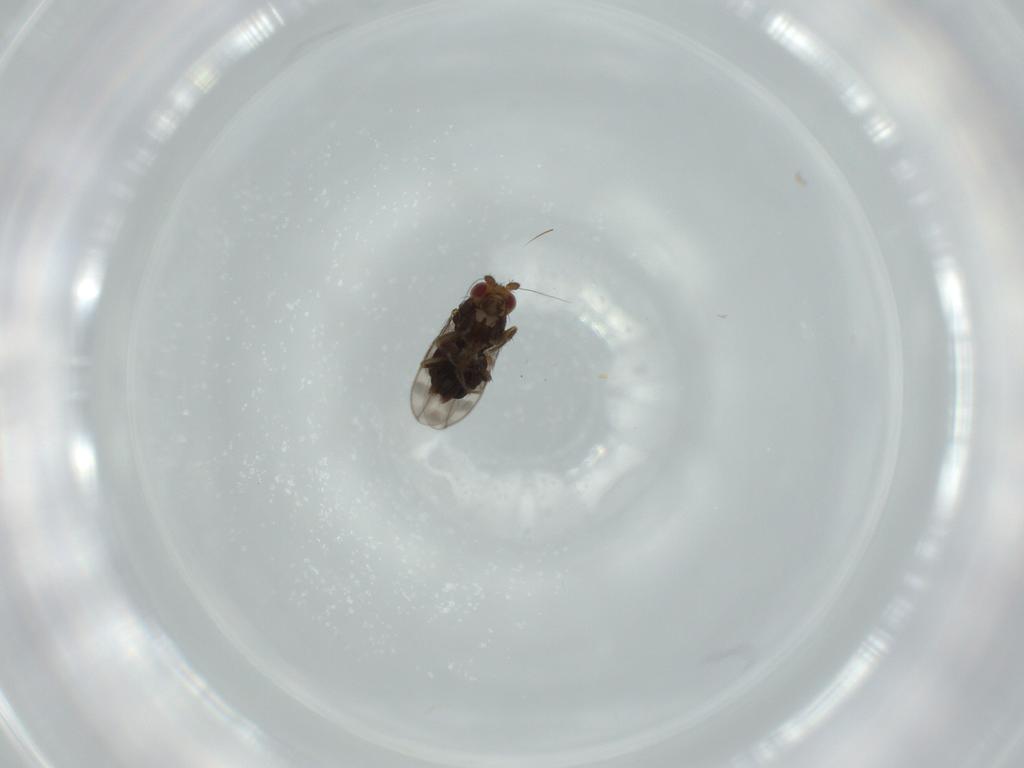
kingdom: Animalia
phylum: Arthropoda
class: Insecta
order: Diptera
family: Sphaeroceridae
